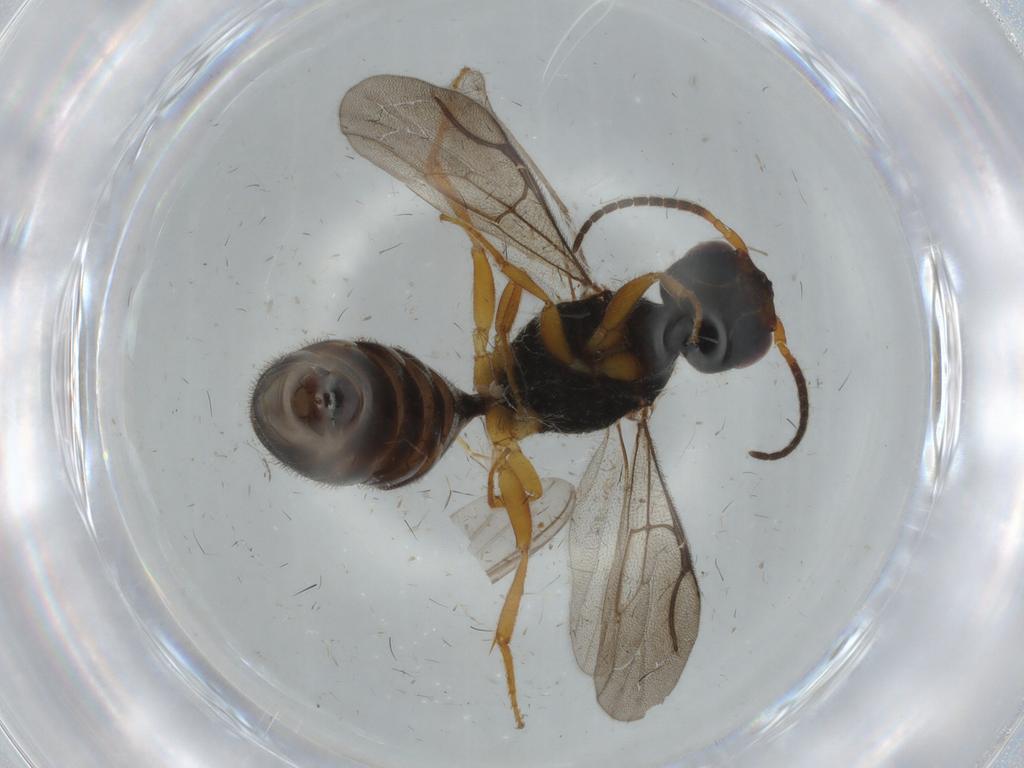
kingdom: Animalia
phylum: Arthropoda
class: Insecta
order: Hymenoptera
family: Bethylidae
